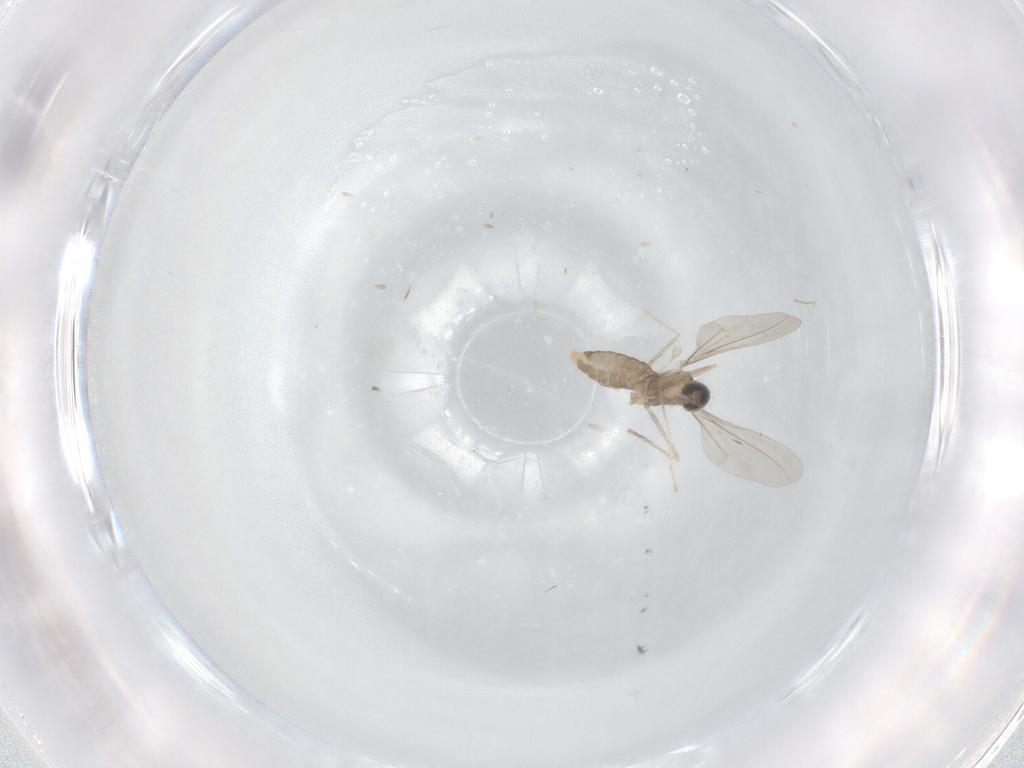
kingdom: Animalia
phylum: Arthropoda
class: Insecta
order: Diptera
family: Cecidomyiidae
